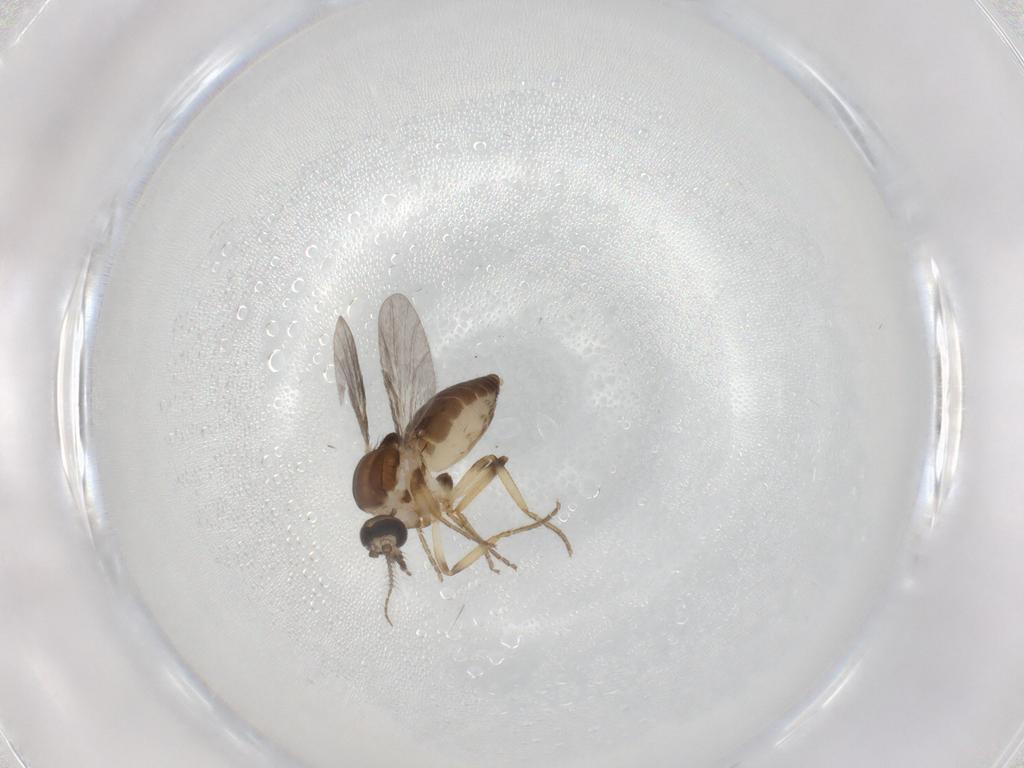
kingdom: Animalia
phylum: Arthropoda
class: Insecta
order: Diptera
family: Ceratopogonidae
